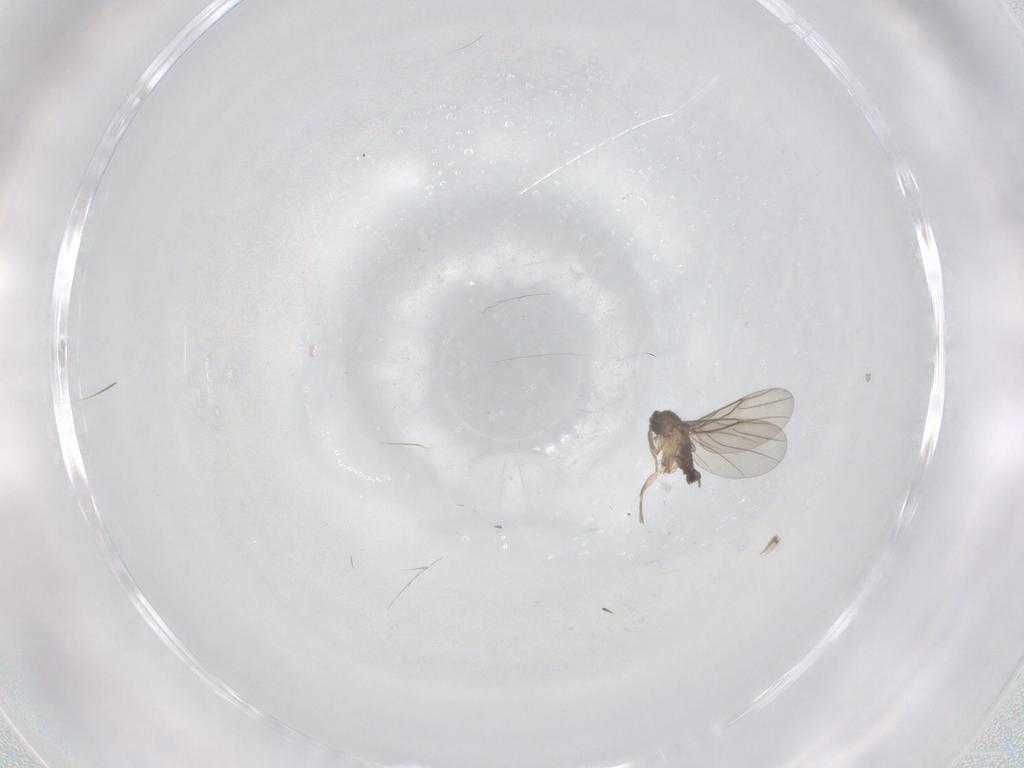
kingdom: Animalia
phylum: Arthropoda
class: Insecta
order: Diptera
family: Phoridae
